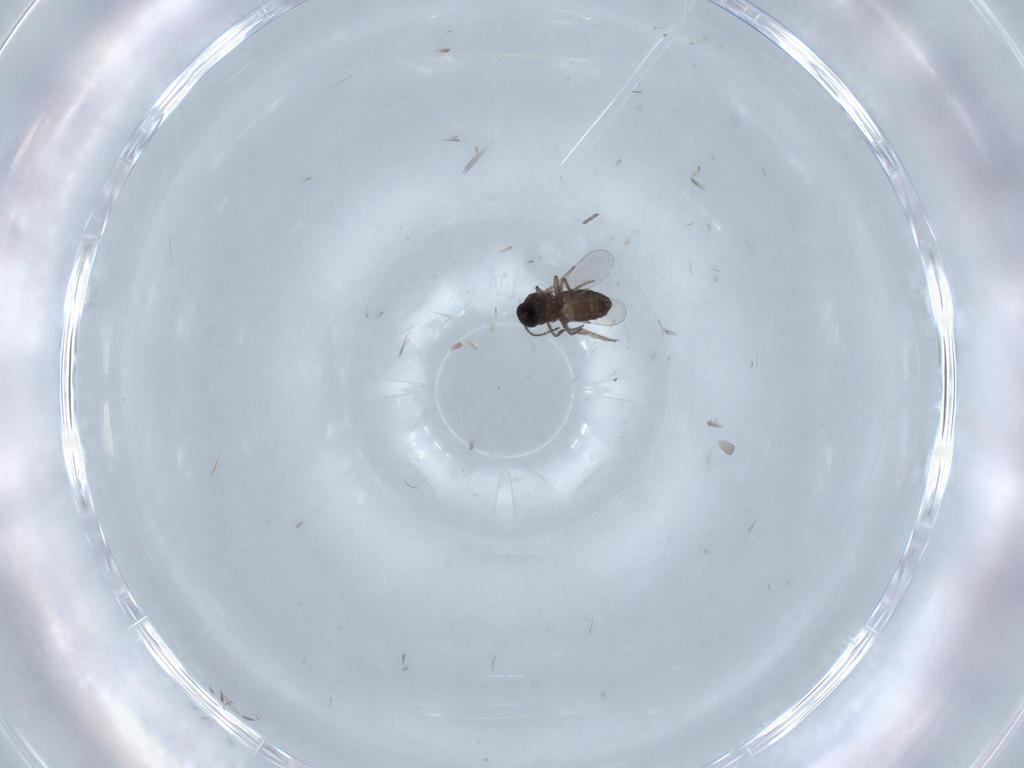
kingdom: Animalia
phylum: Arthropoda
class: Insecta
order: Diptera
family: Ceratopogonidae
